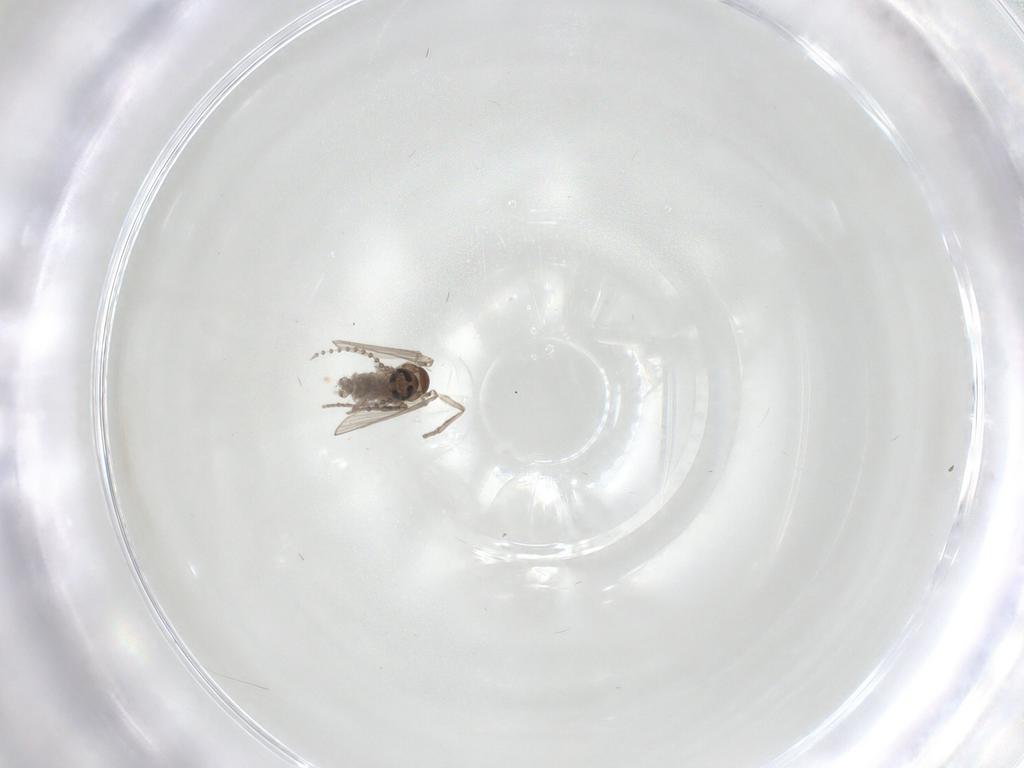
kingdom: Animalia
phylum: Arthropoda
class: Insecta
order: Diptera
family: Psychodidae
